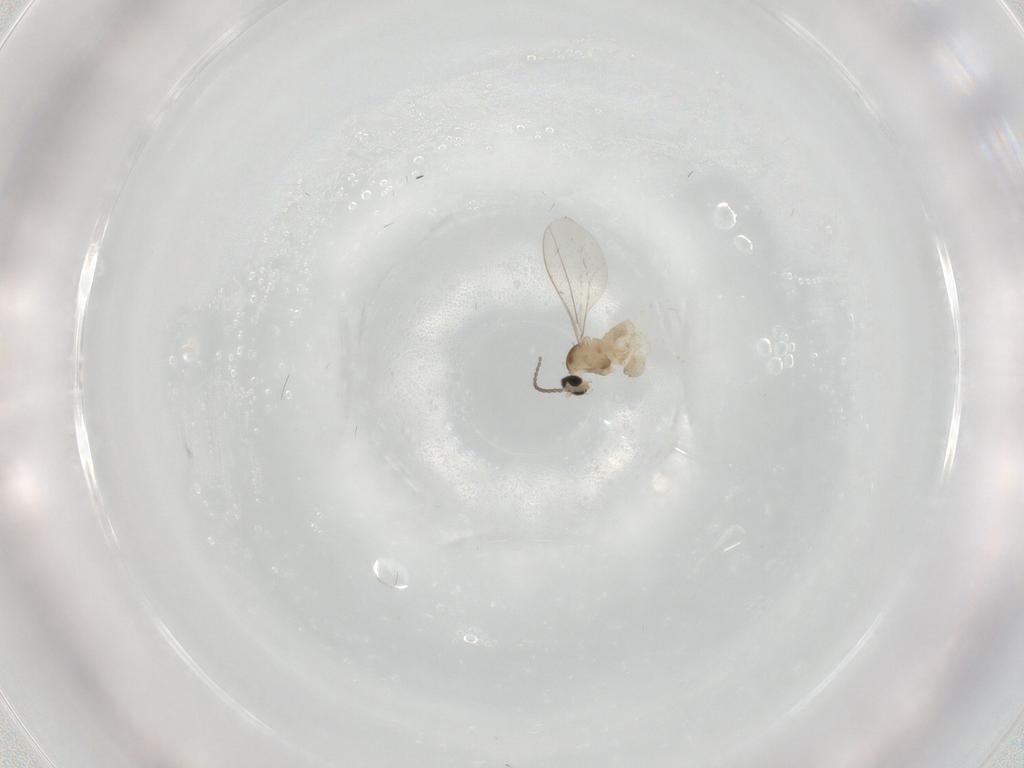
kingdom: Animalia
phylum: Arthropoda
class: Insecta
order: Diptera
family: Cecidomyiidae
